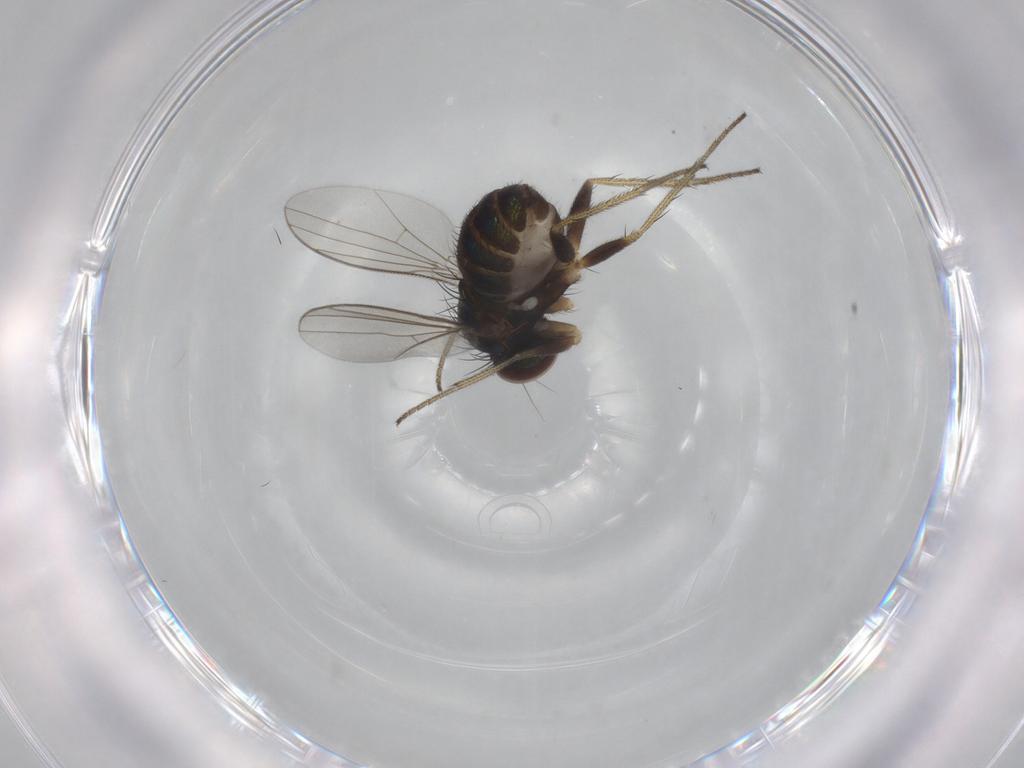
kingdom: Animalia
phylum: Arthropoda
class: Insecta
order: Diptera
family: Dolichopodidae
